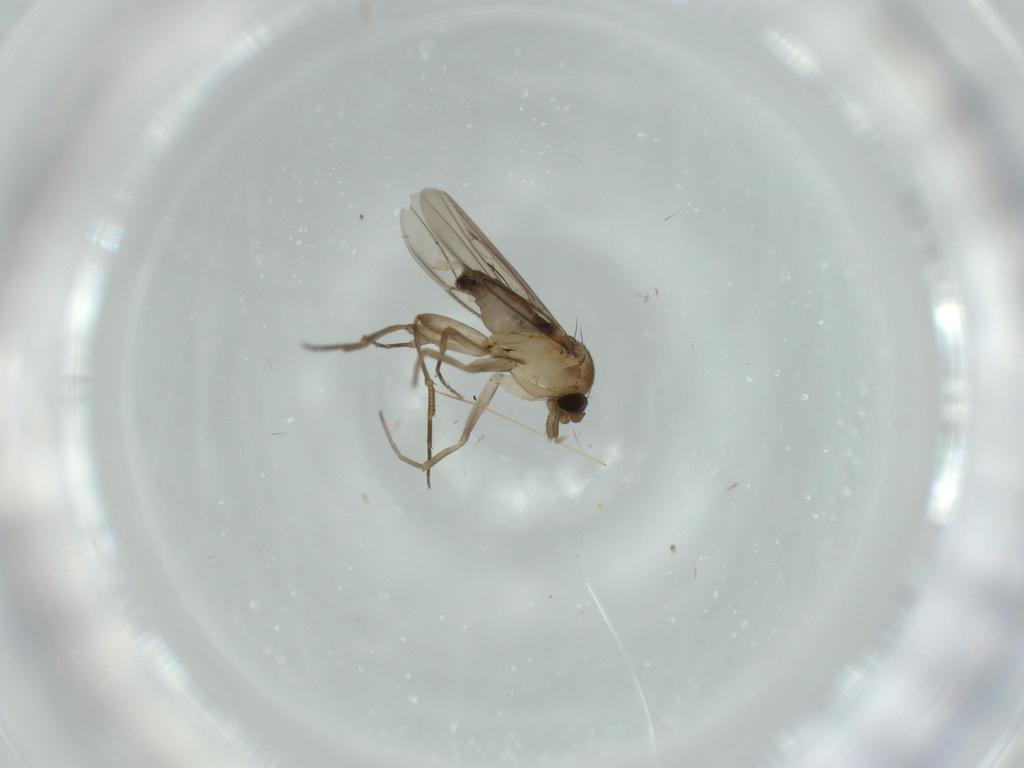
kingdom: Animalia
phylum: Arthropoda
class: Insecta
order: Diptera
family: Phoridae
